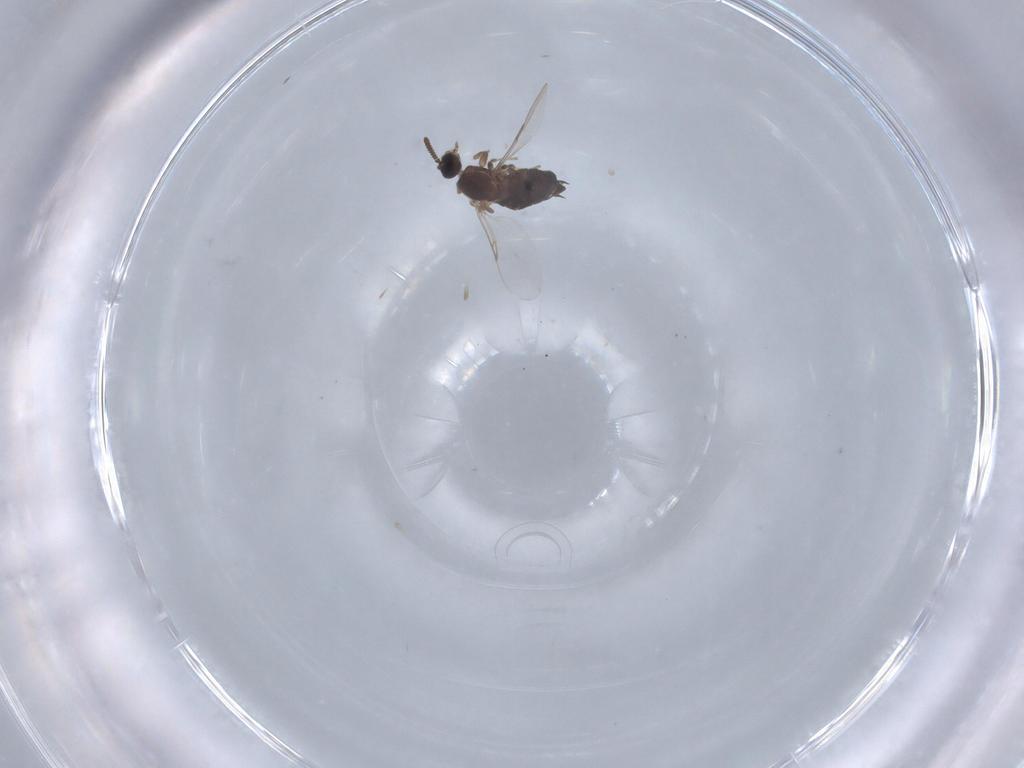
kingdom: Animalia
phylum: Arthropoda
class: Insecta
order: Diptera
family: Scatopsidae
